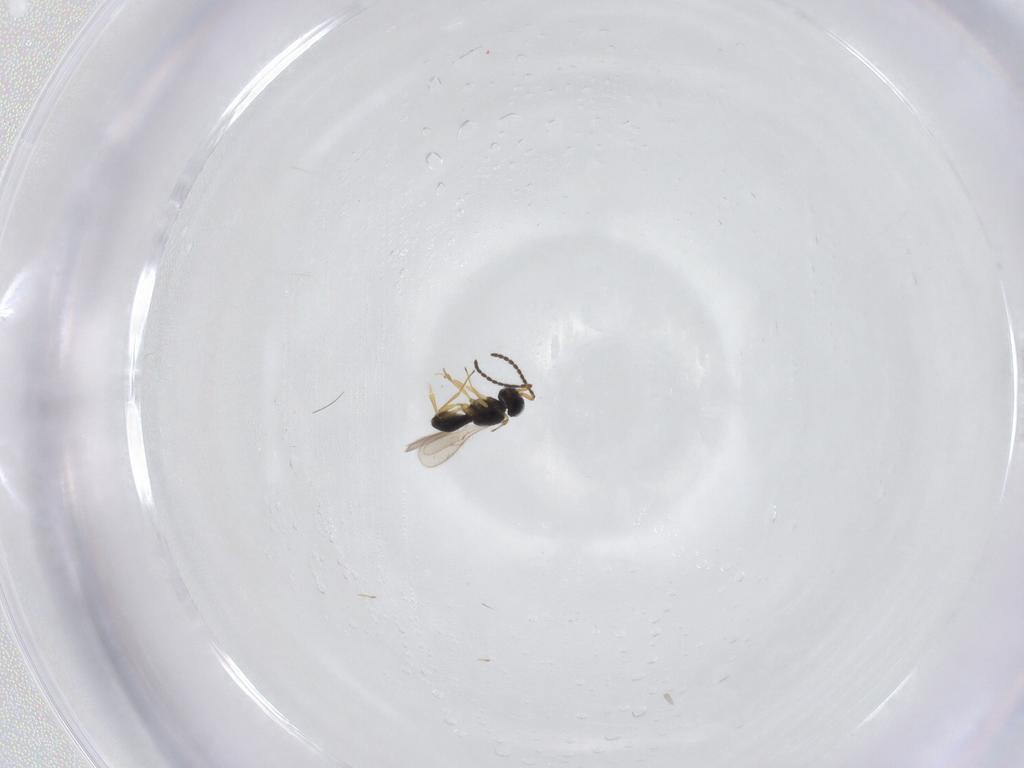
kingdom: Animalia
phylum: Arthropoda
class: Insecta
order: Hymenoptera
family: Scelionidae
